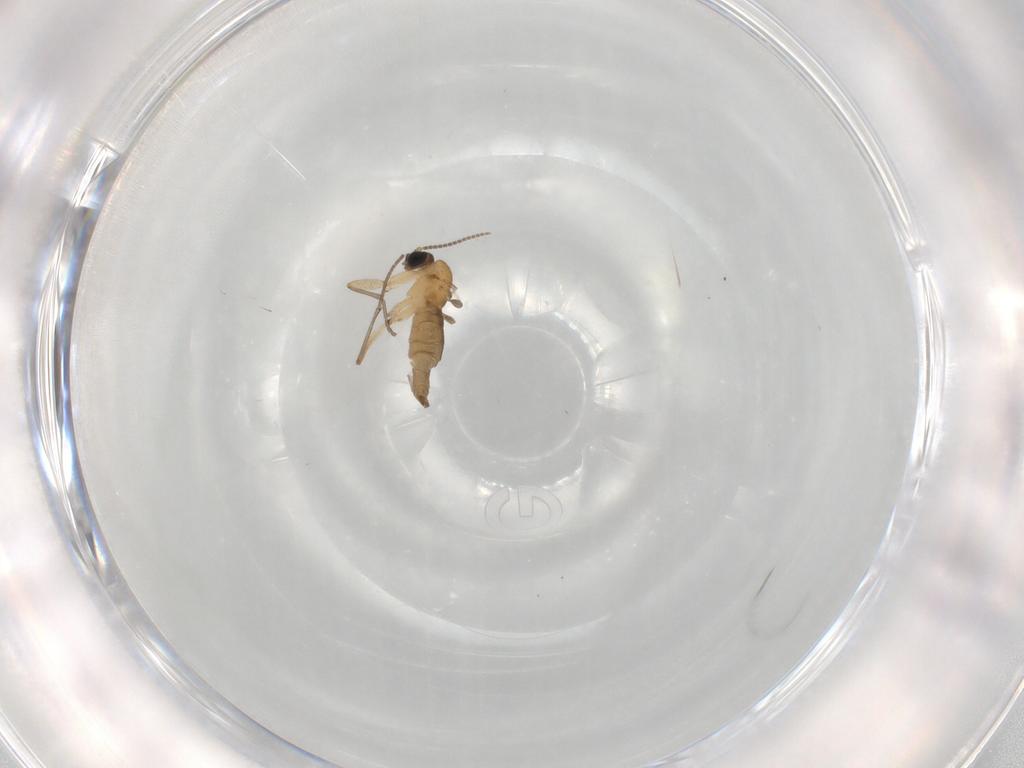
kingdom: Animalia
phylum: Arthropoda
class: Insecta
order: Diptera
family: Sciaridae
